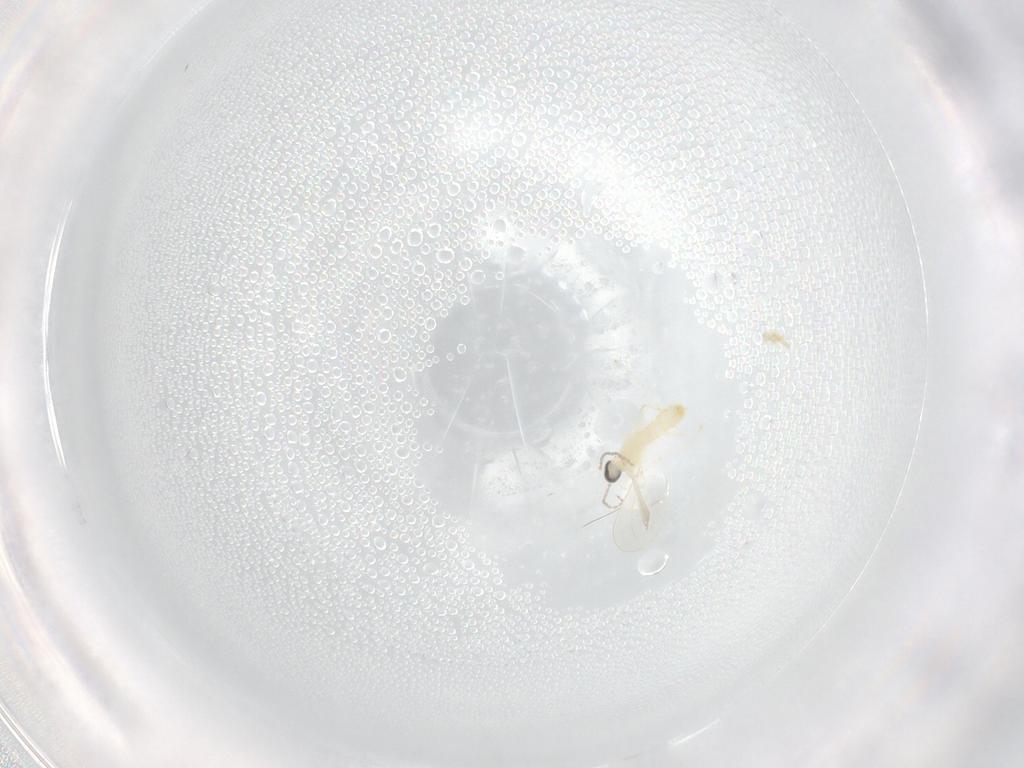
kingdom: Animalia
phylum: Arthropoda
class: Insecta
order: Diptera
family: Cecidomyiidae
